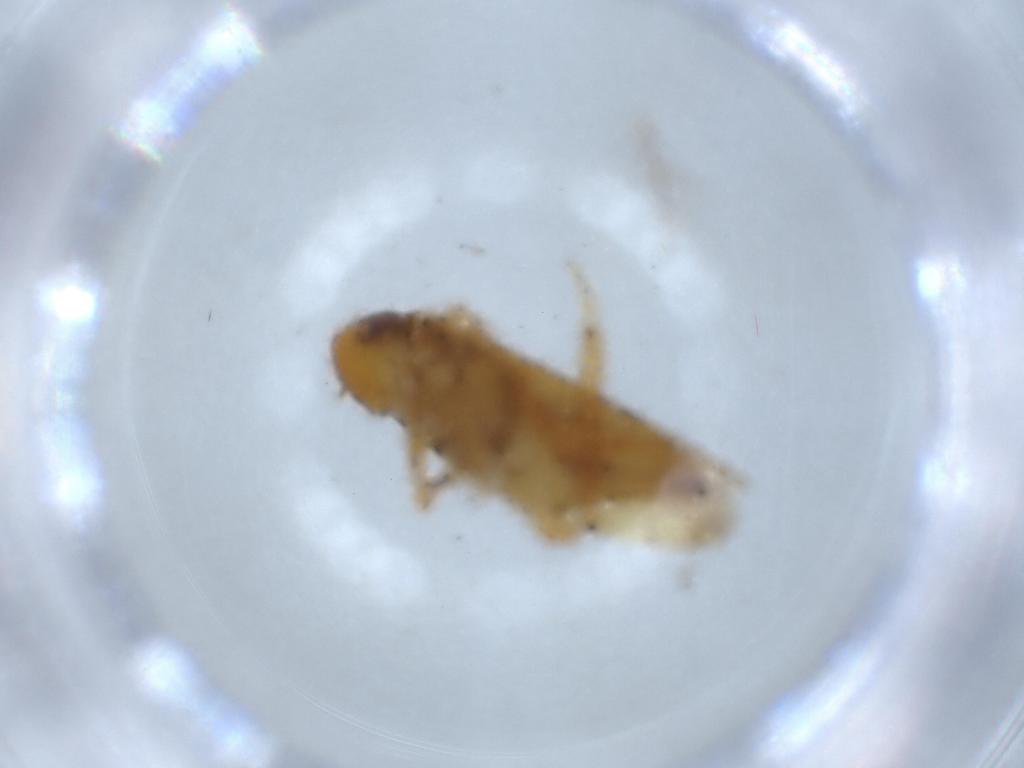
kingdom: Animalia
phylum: Arthropoda
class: Insecta
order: Hemiptera
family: Cicadellidae
